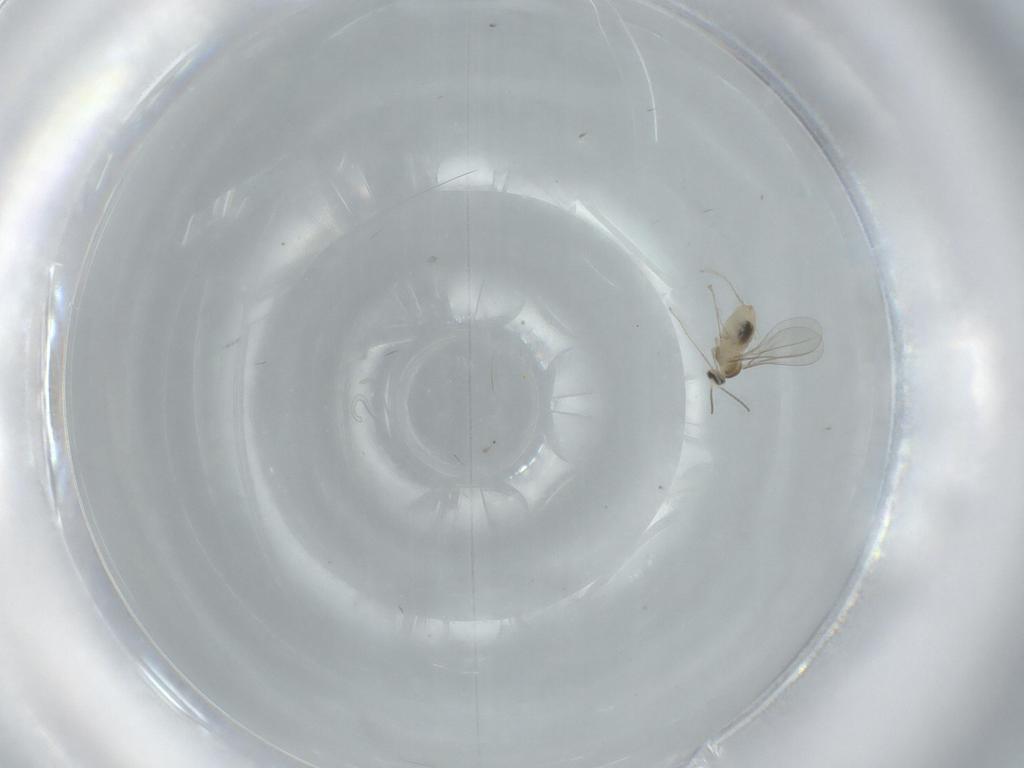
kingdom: Animalia
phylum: Arthropoda
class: Insecta
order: Diptera
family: Cecidomyiidae
